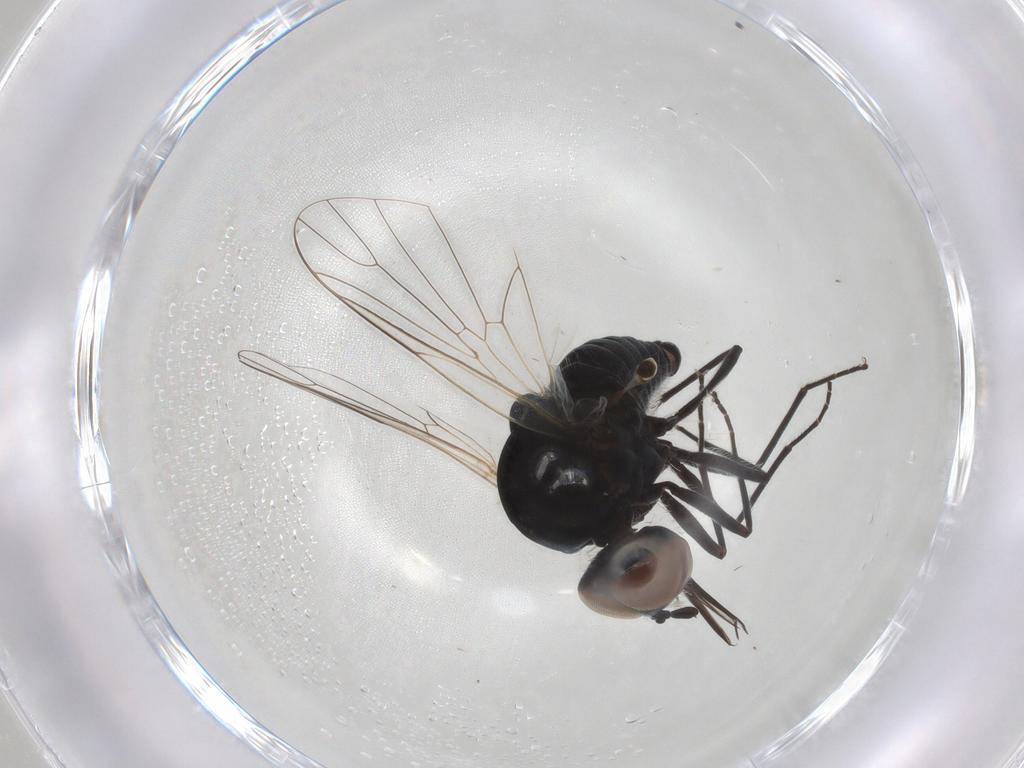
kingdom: Animalia
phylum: Arthropoda
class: Insecta
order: Diptera
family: Bombyliidae
